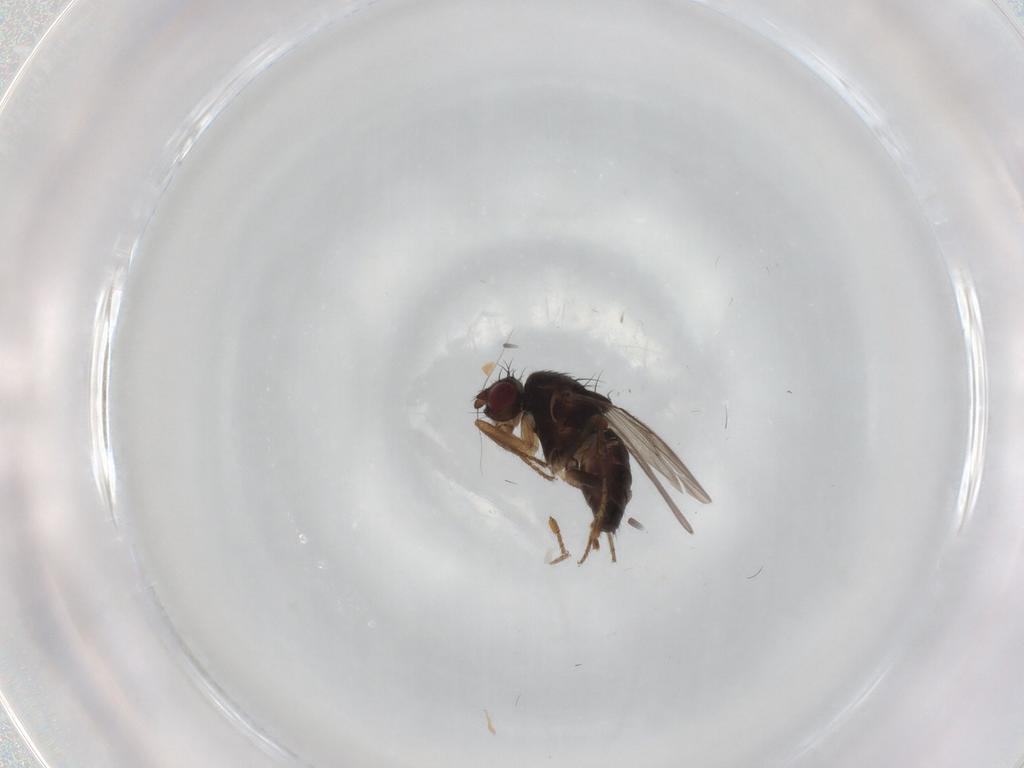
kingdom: Animalia
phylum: Arthropoda
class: Insecta
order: Diptera
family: Sphaeroceridae
